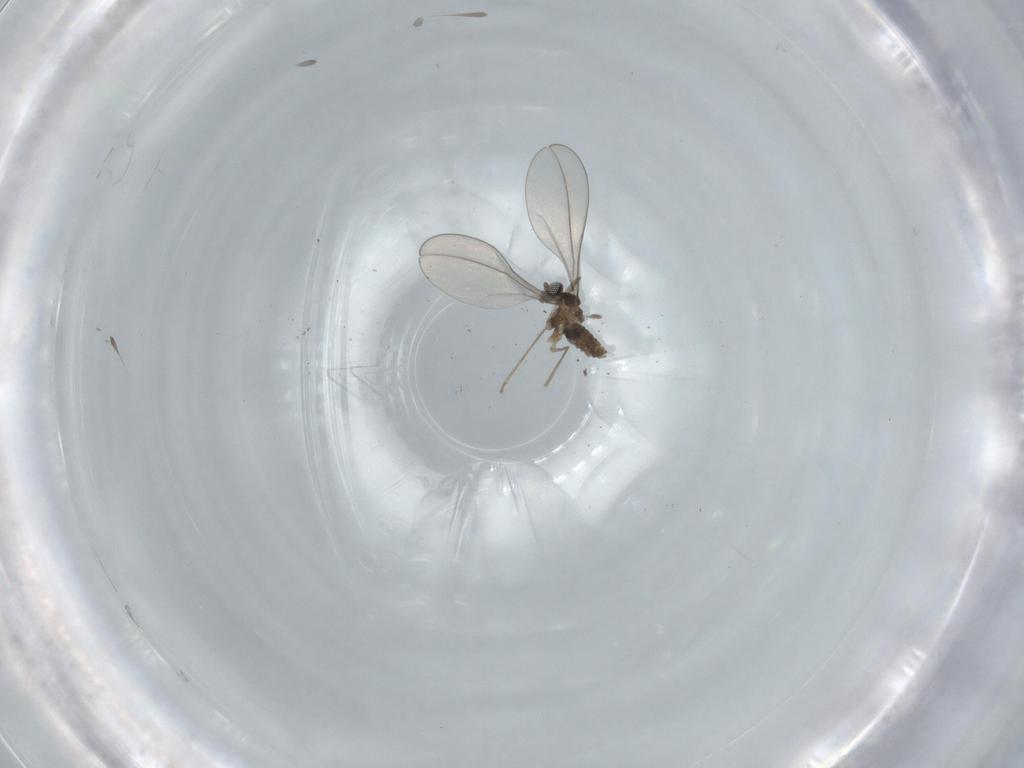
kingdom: Animalia
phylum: Arthropoda
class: Insecta
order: Diptera
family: Cecidomyiidae
